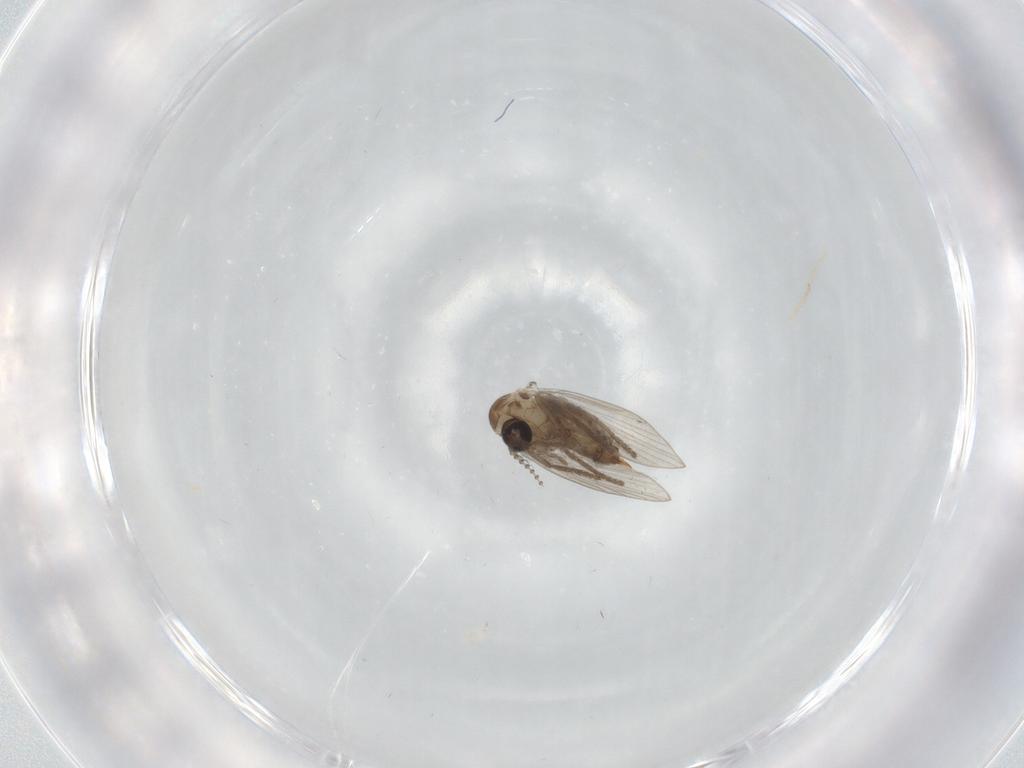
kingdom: Animalia
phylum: Arthropoda
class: Insecta
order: Diptera
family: Psychodidae
